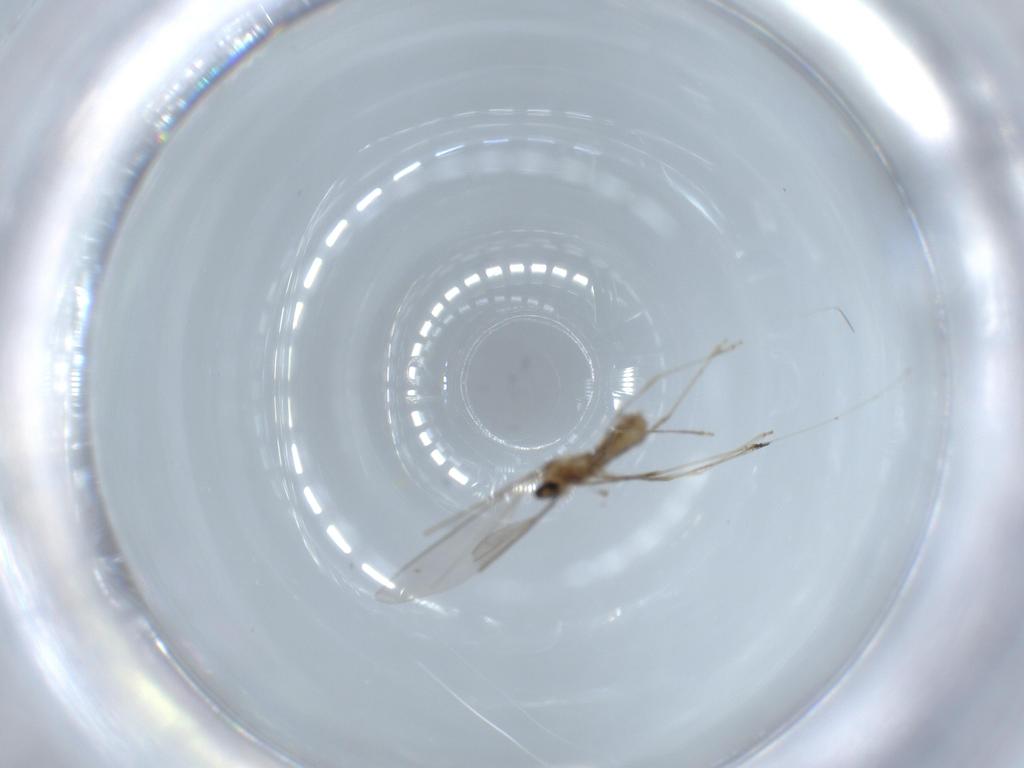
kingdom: Animalia
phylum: Arthropoda
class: Insecta
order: Diptera
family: Cecidomyiidae
